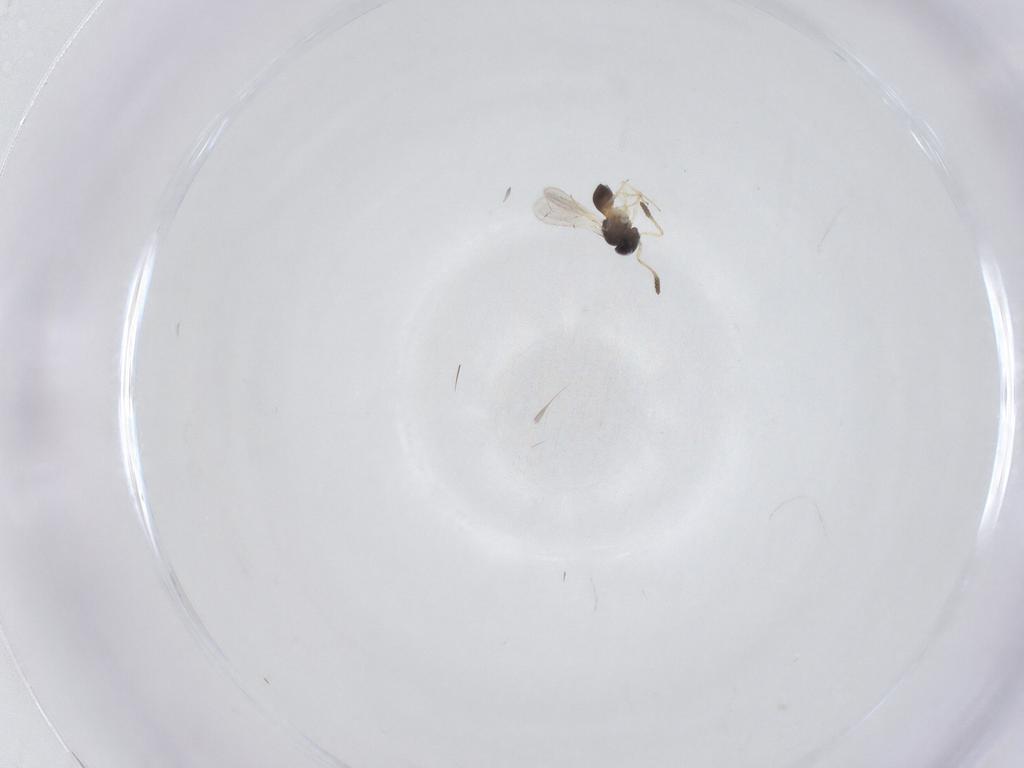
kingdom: Animalia
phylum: Arthropoda
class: Insecta
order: Hymenoptera
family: Scelionidae
